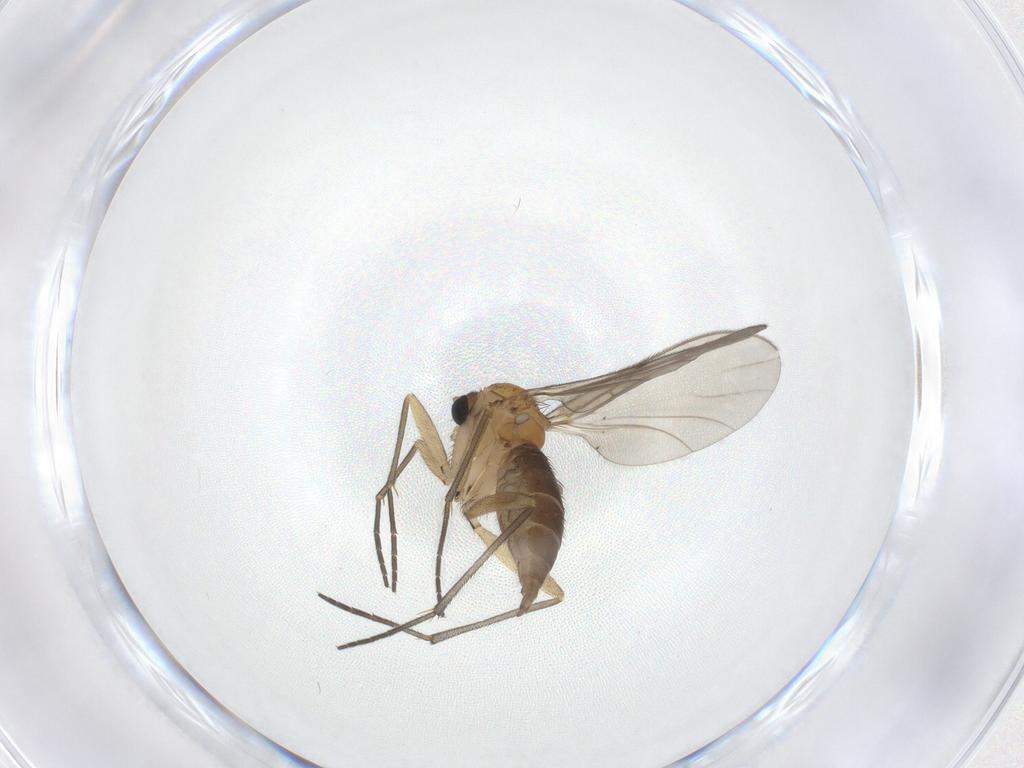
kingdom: Animalia
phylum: Arthropoda
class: Insecta
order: Diptera
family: Sciaridae
